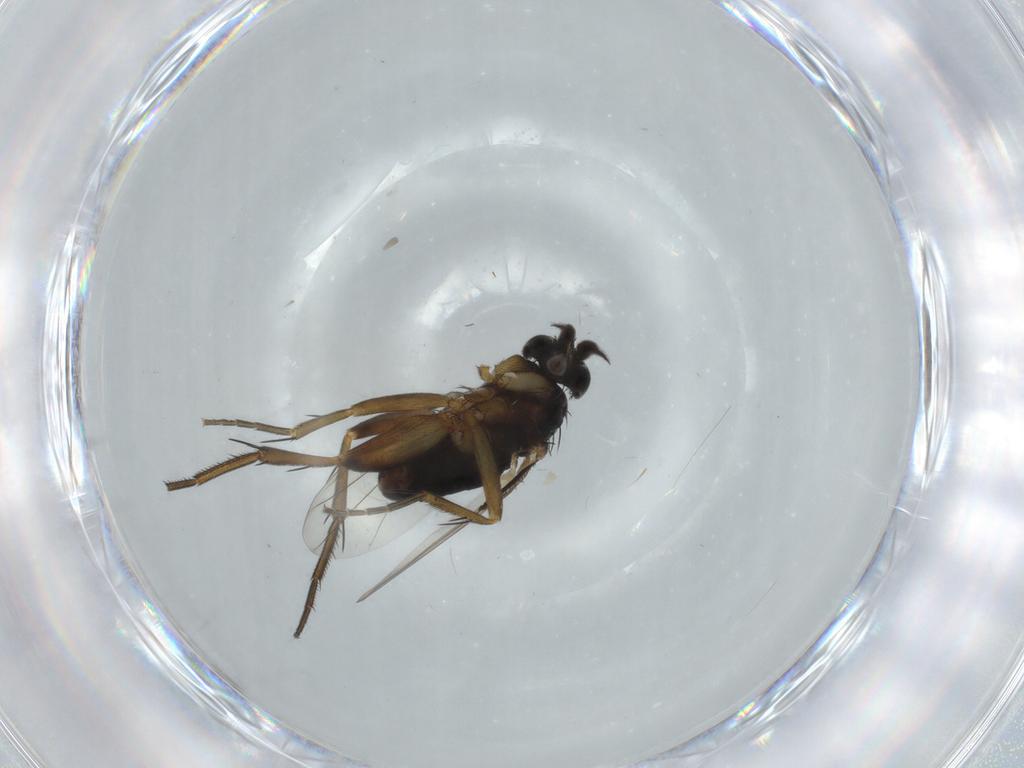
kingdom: Animalia
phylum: Arthropoda
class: Insecta
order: Diptera
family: Phoridae
